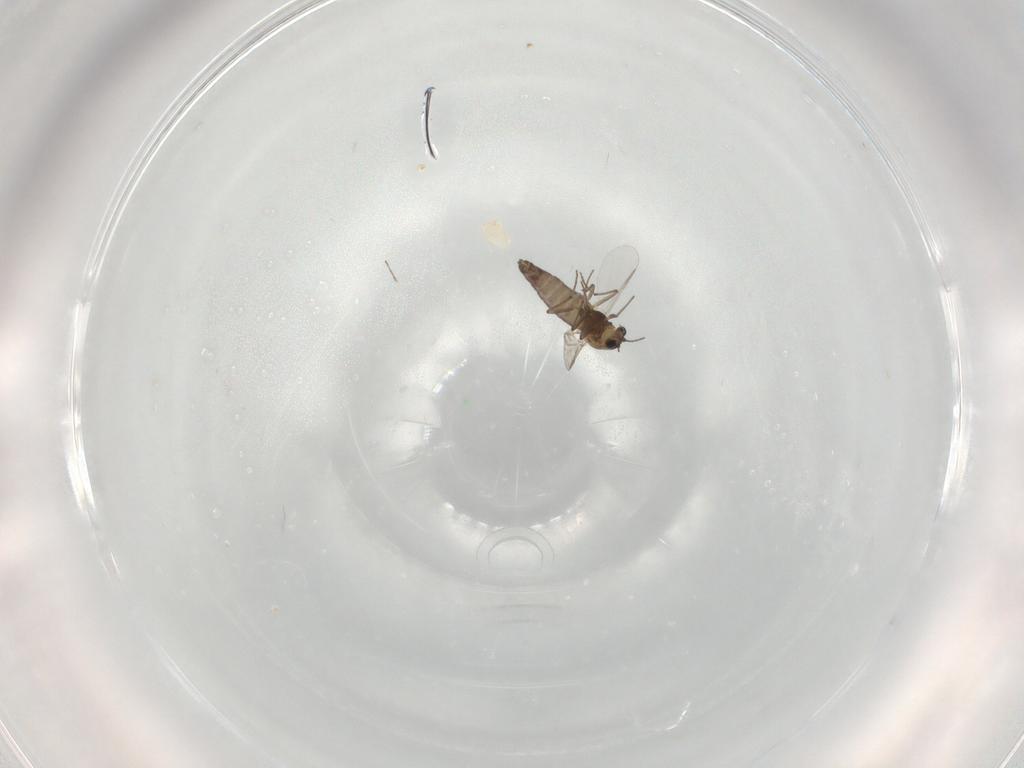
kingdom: Animalia
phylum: Arthropoda
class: Insecta
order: Diptera
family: Chironomidae
